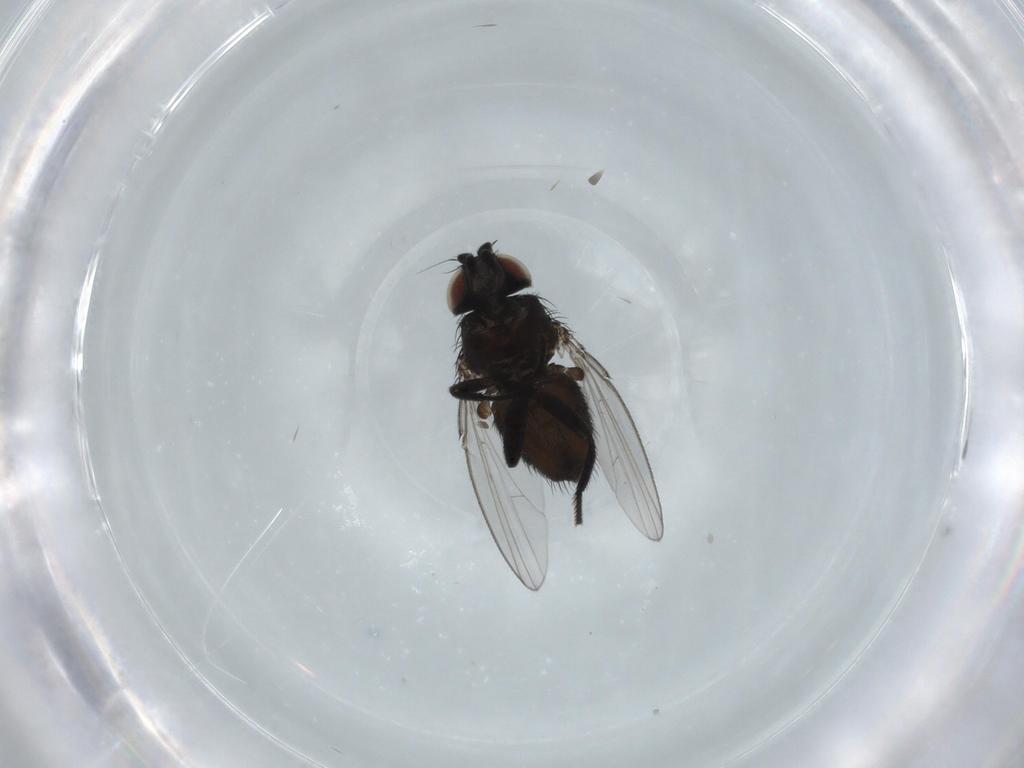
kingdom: Animalia
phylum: Arthropoda
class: Insecta
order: Diptera
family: Milichiidae
